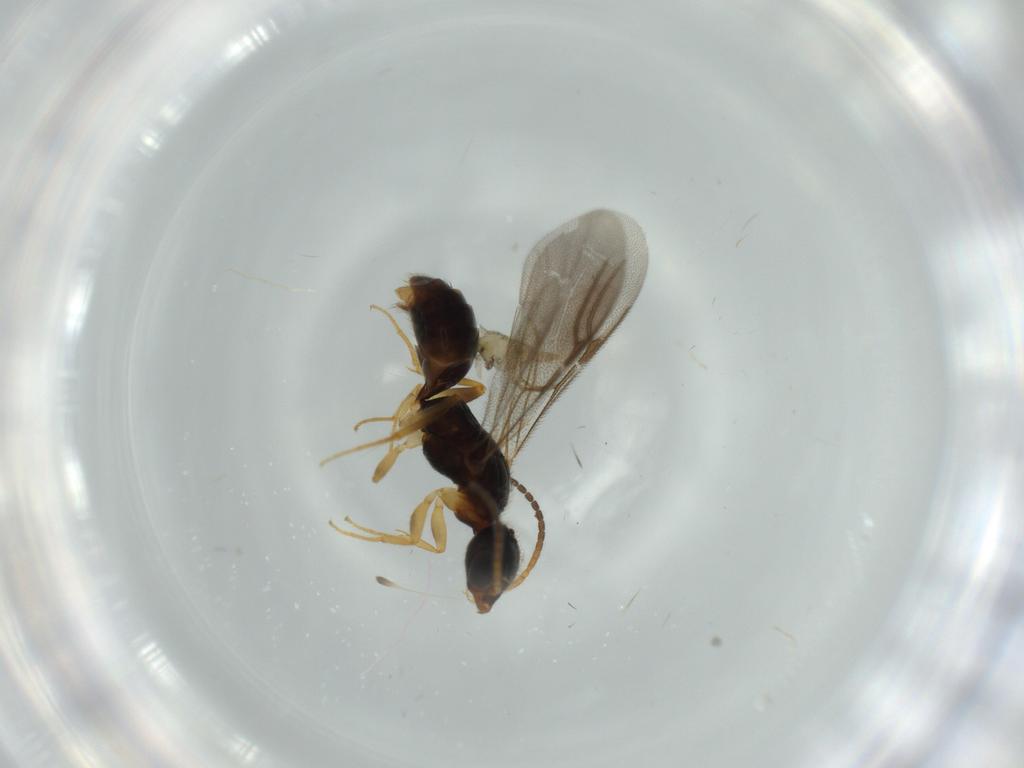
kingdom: Animalia
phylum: Arthropoda
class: Insecta
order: Hymenoptera
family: Bethylidae
